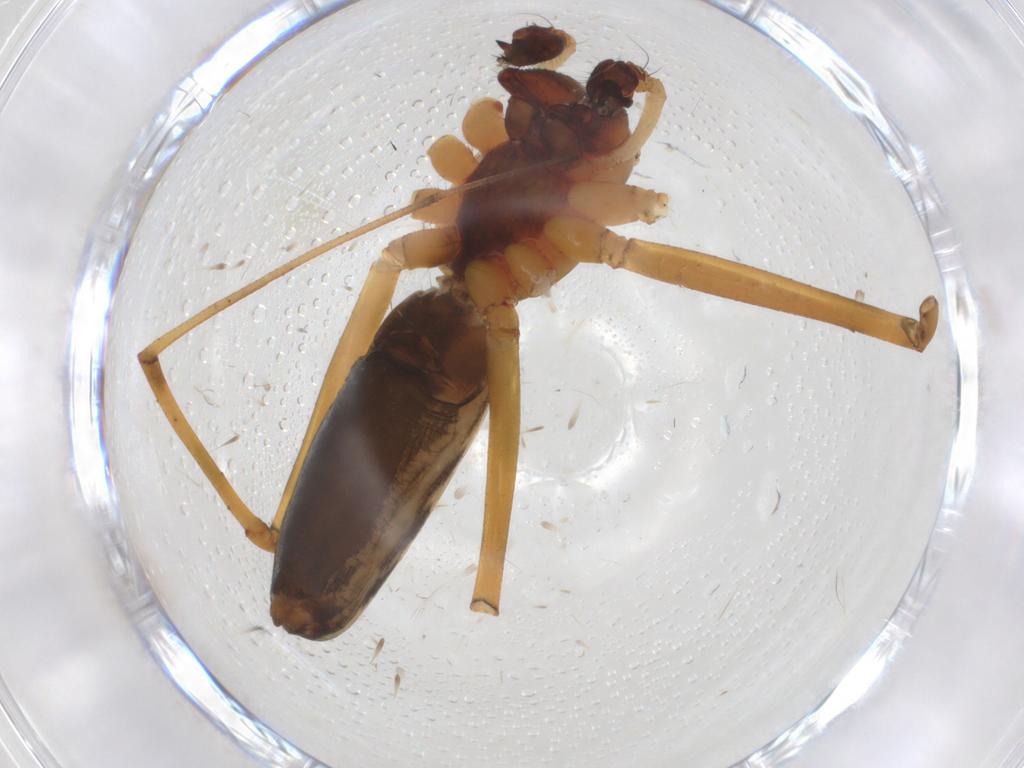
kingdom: Animalia
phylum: Arthropoda
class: Arachnida
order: Araneae
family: Linyphiidae
